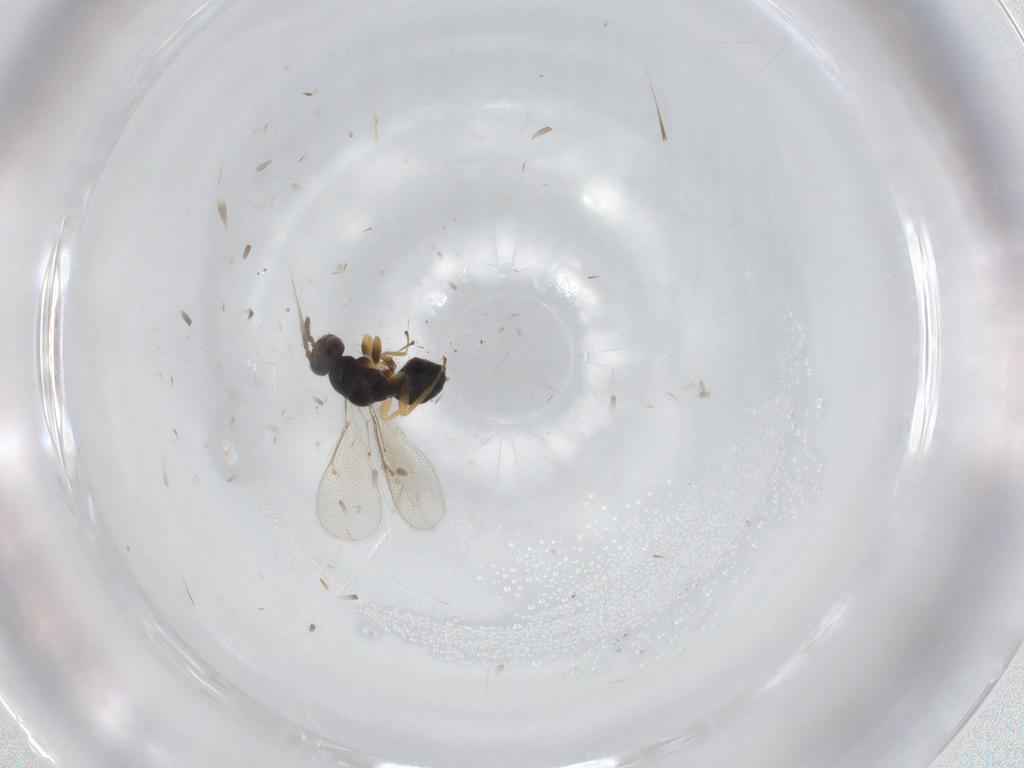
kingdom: Animalia
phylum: Arthropoda
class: Insecta
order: Hymenoptera
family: Eulophidae
